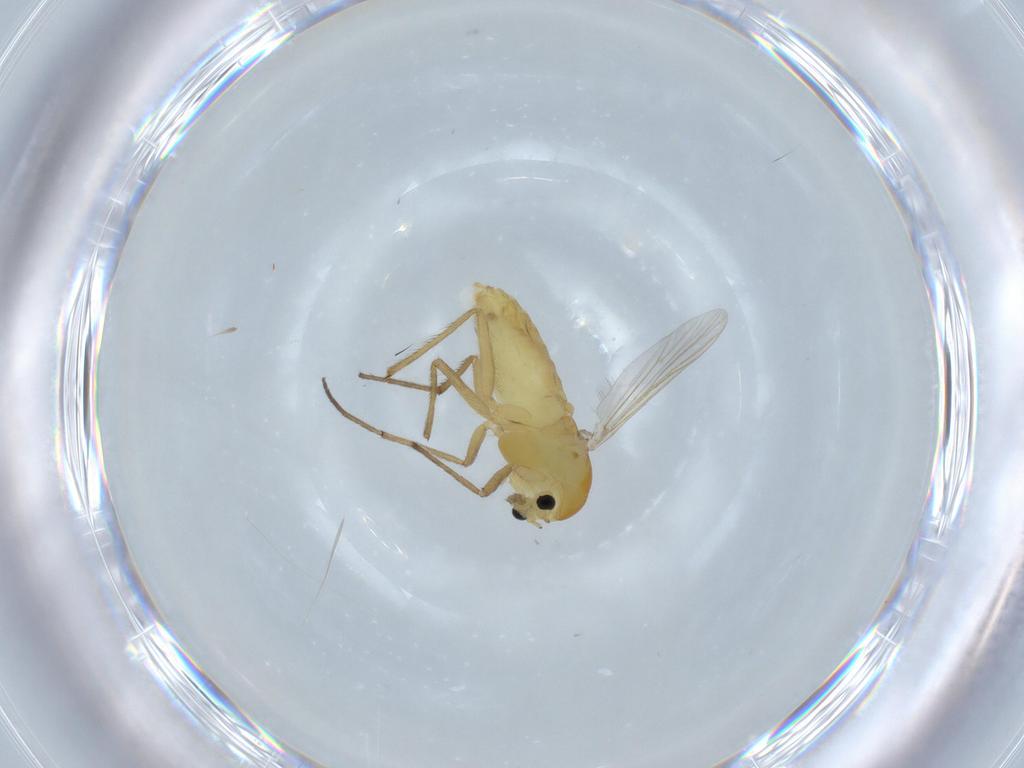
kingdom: Animalia
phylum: Arthropoda
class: Insecta
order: Diptera
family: Chironomidae
